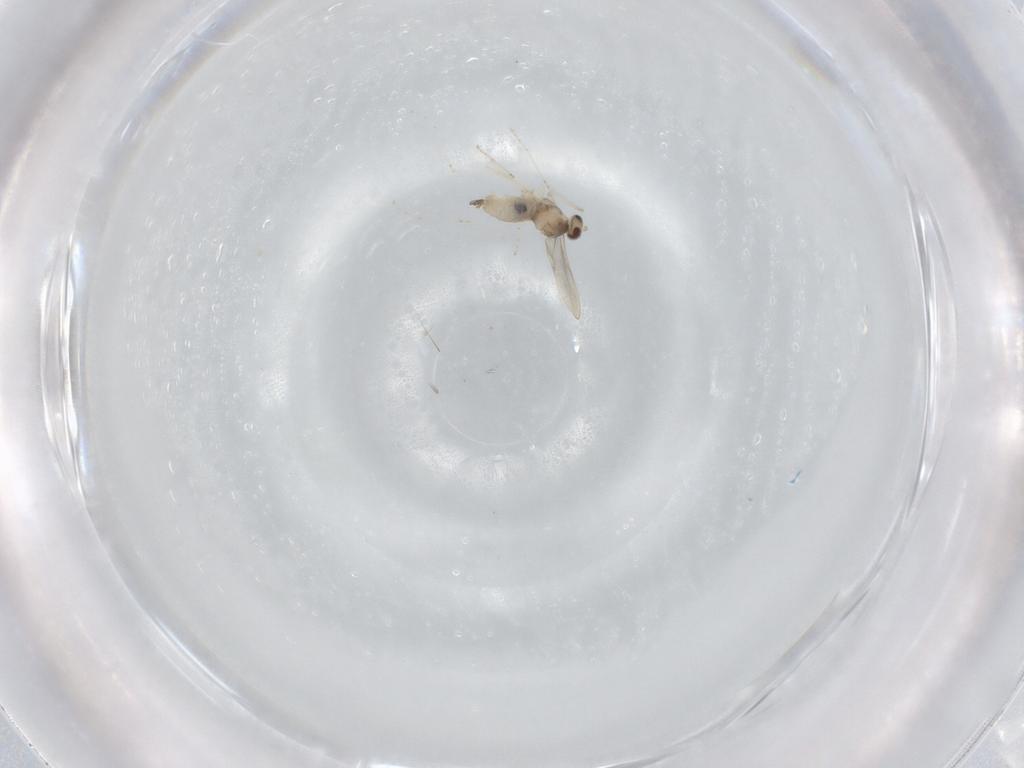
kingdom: Animalia
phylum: Arthropoda
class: Insecta
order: Diptera
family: Cecidomyiidae
